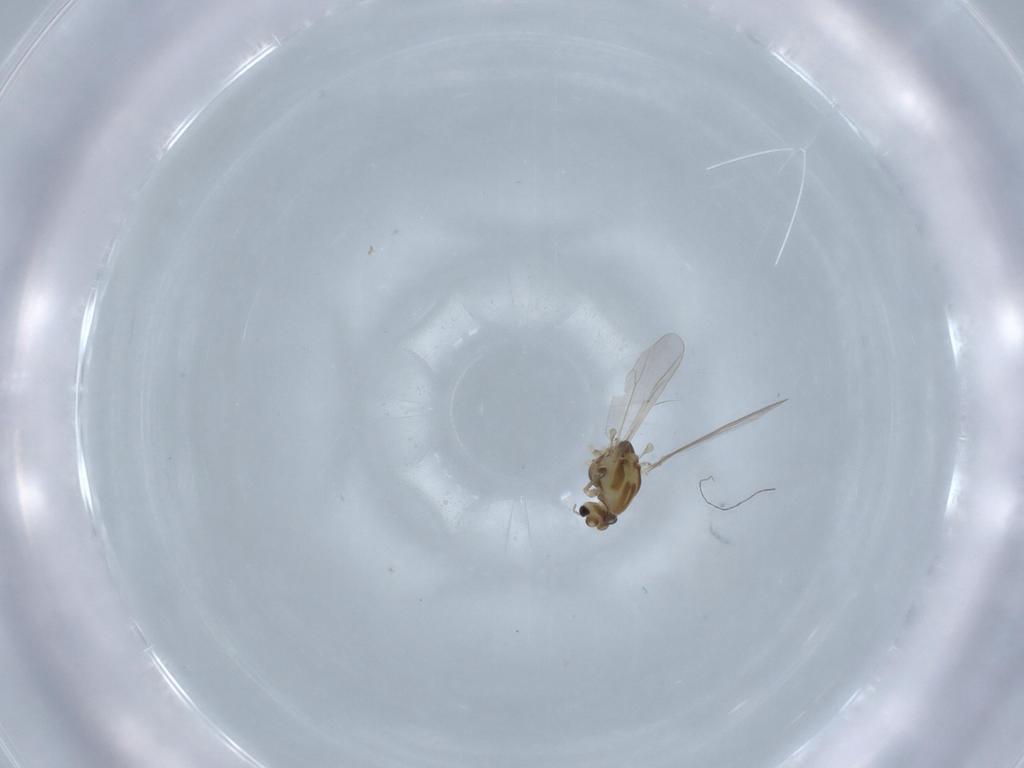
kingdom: Animalia
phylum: Arthropoda
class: Insecta
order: Diptera
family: Chironomidae
